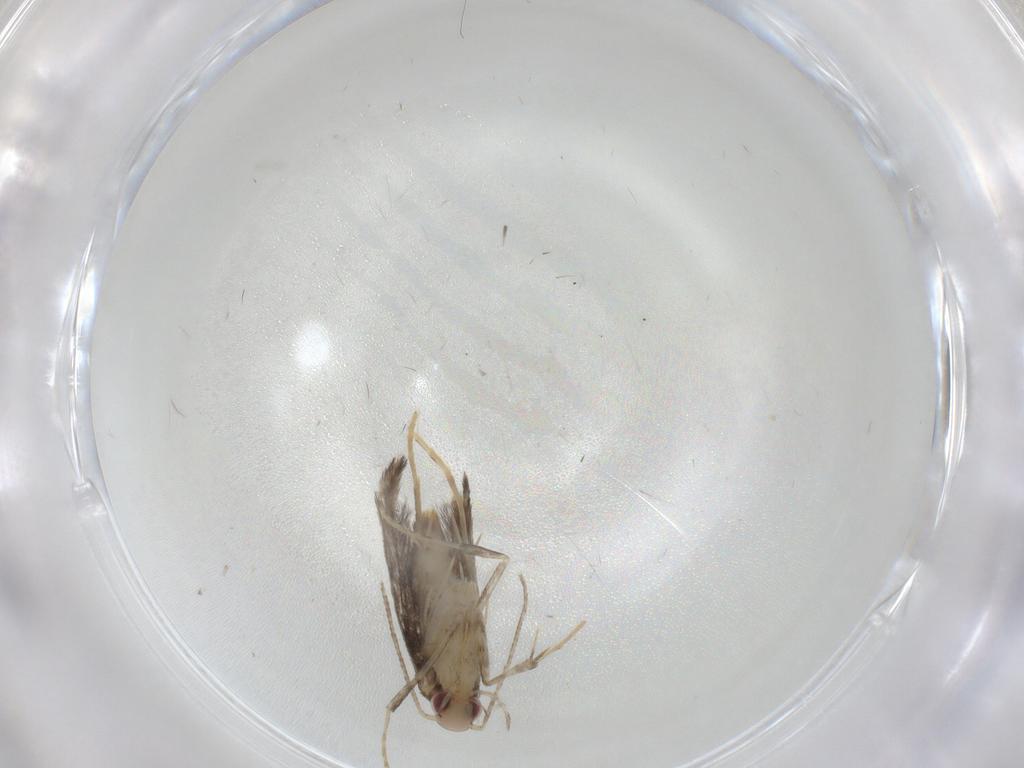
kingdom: Animalia
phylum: Arthropoda
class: Insecta
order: Lepidoptera
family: Gracillariidae
